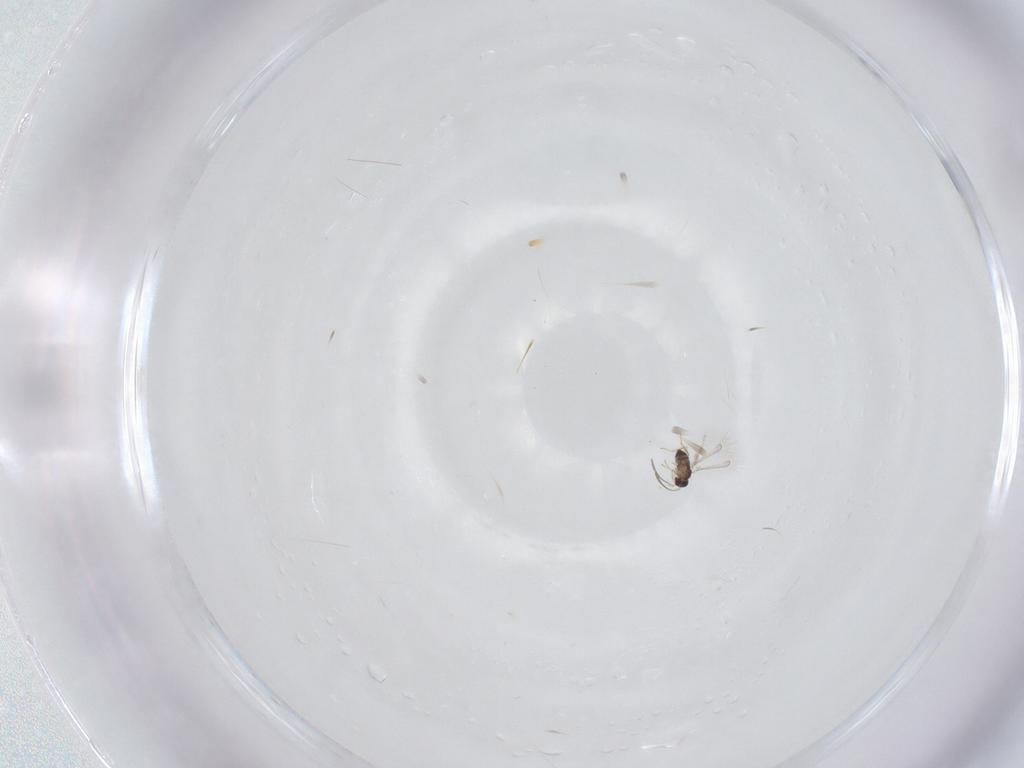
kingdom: Animalia
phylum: Arthropoda
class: Insecta
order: Hymenoptera
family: Mymaridae
